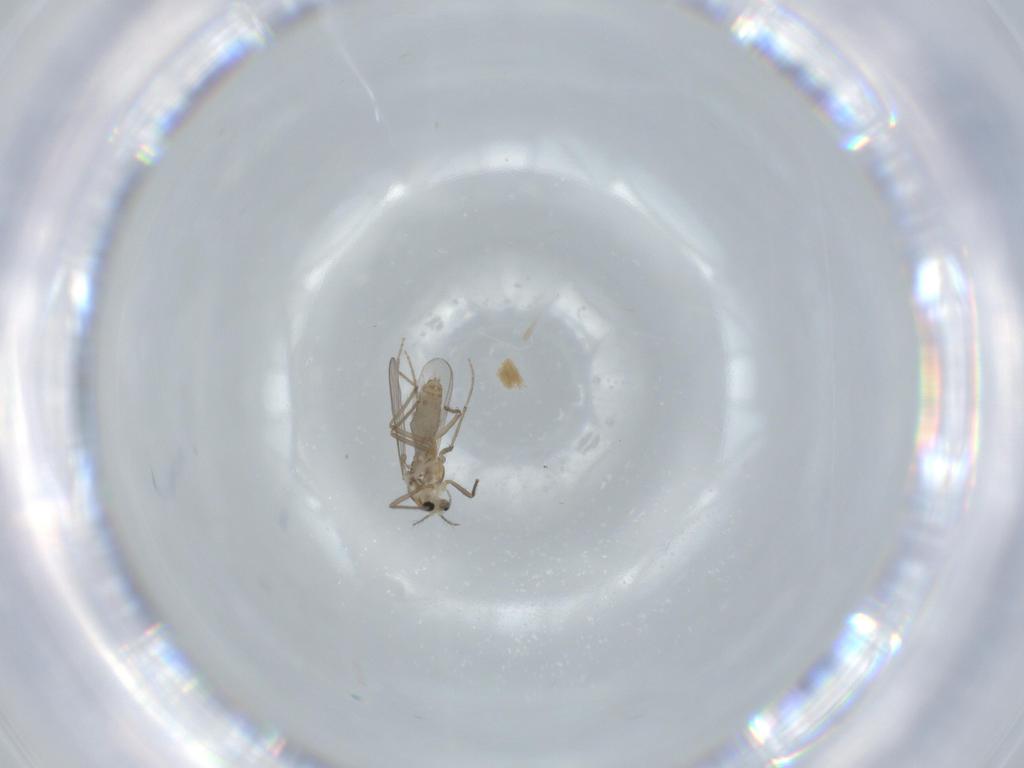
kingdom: Animalia
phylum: Arthropoda
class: Insecta
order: Diptera
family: Chironomidae
